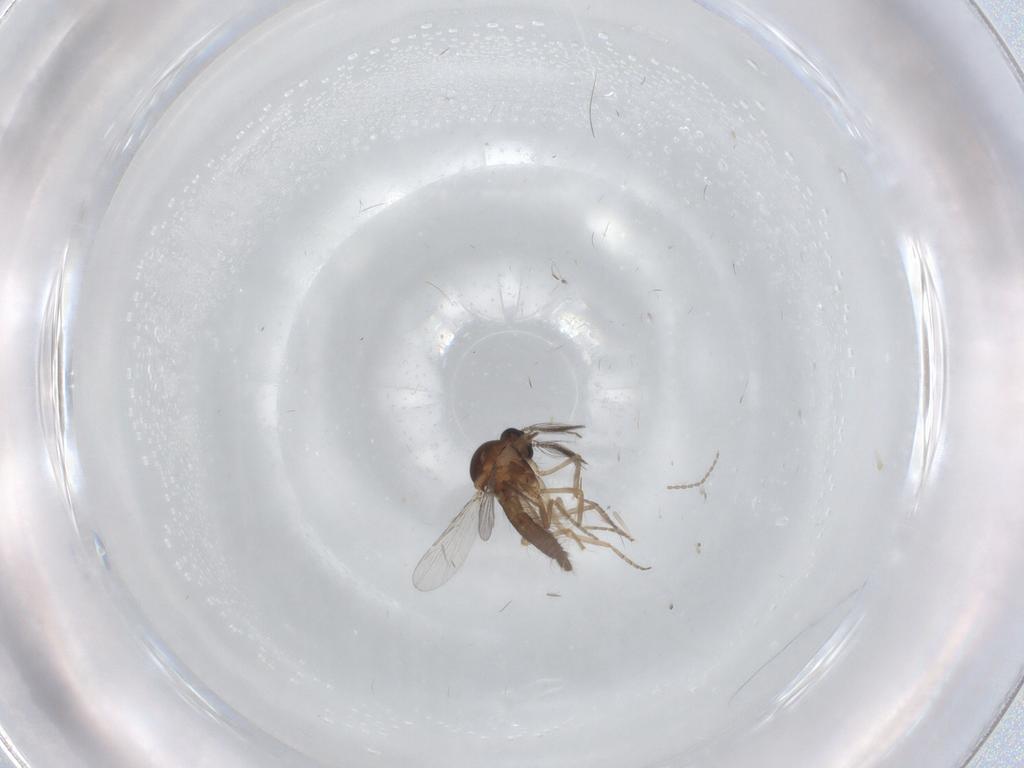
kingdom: Animalia
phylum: Arthropoda
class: Insecta
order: Diptera
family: Cecidomyiidae
